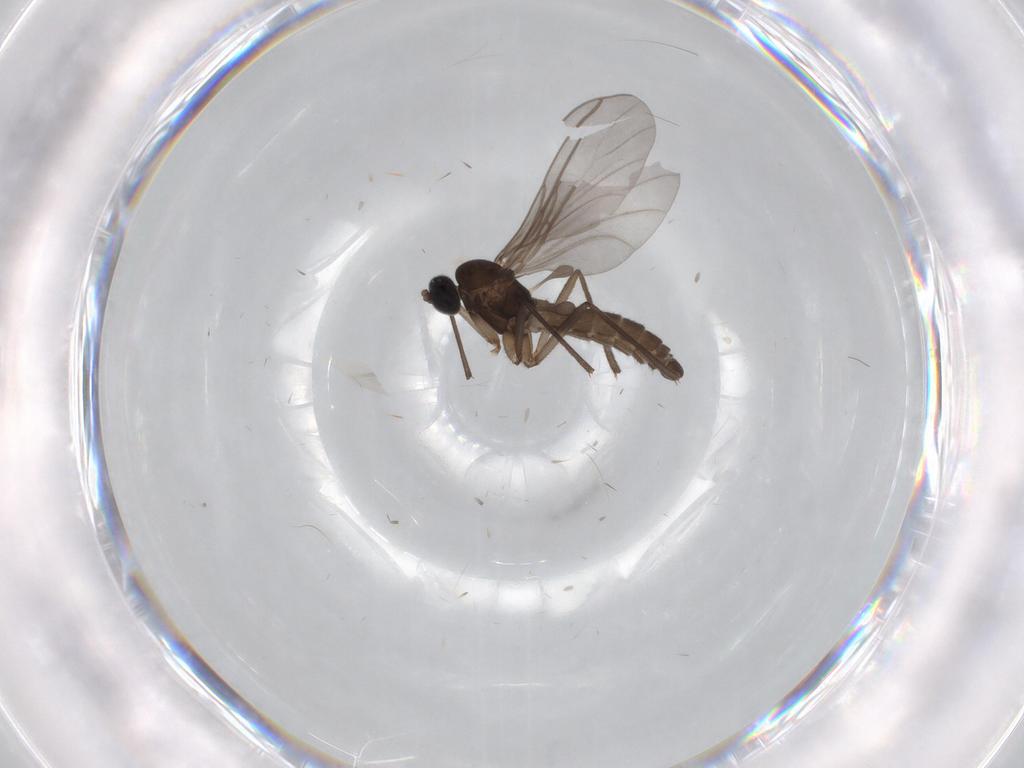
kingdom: Animalia
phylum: Arthropoda
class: Insecta
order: Diptera
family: Sciaridae
